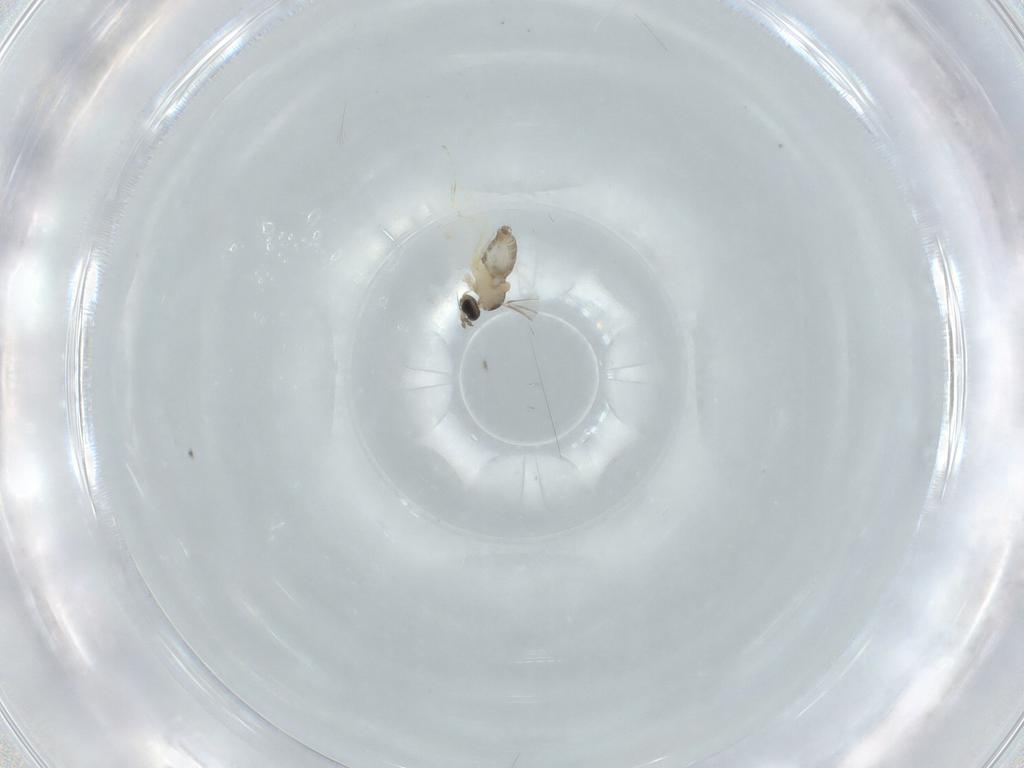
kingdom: Animalia
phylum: Arthropoda
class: Insecta
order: Diptera
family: Cecidomyiidae
